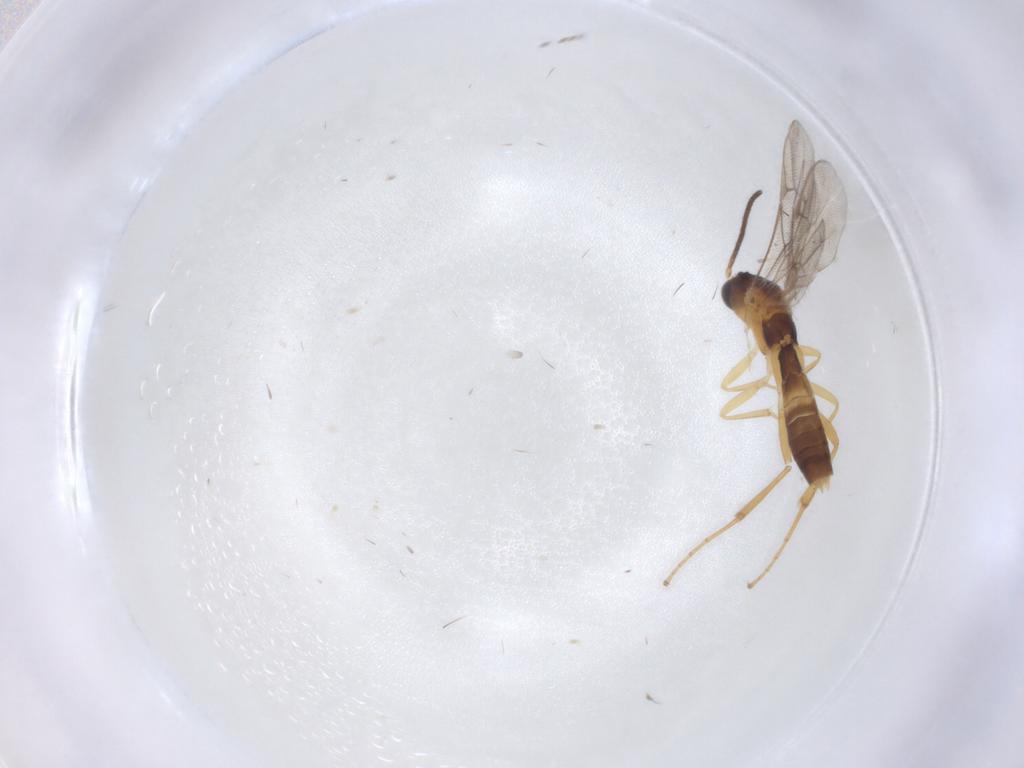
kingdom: Animalia
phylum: Arthropoda
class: Insecta
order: Hymenoptera
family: Ichneumonidae
